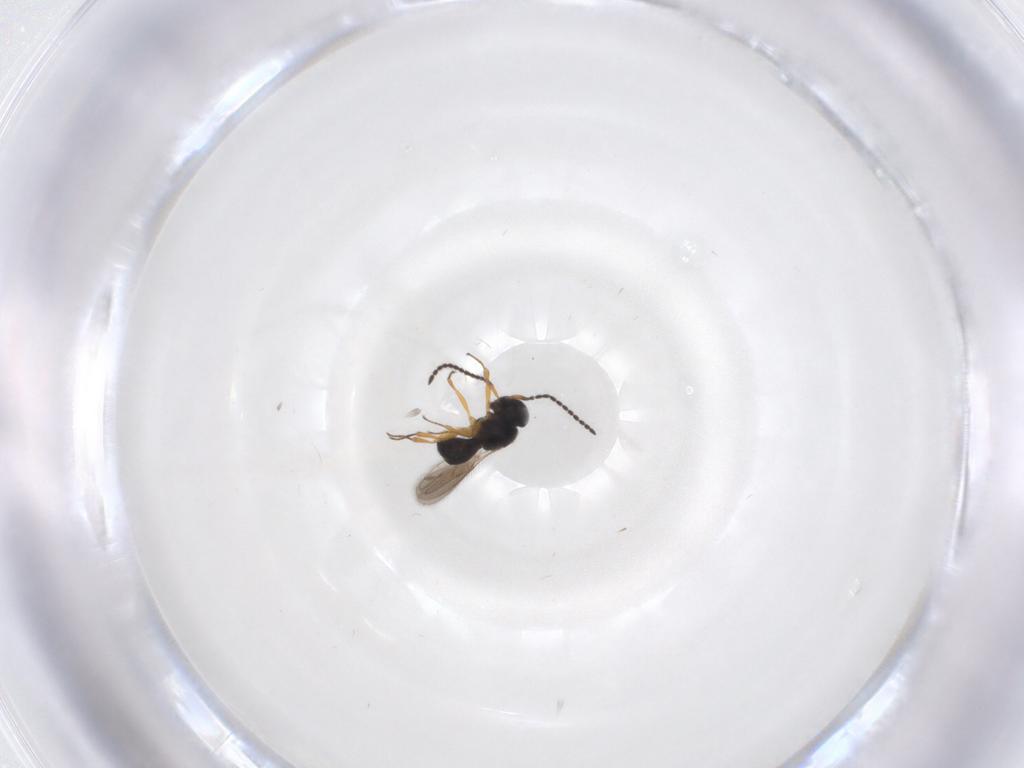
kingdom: Animalia
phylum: Arthropoda
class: Insecta
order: Hymenoptera
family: Scelionidae
